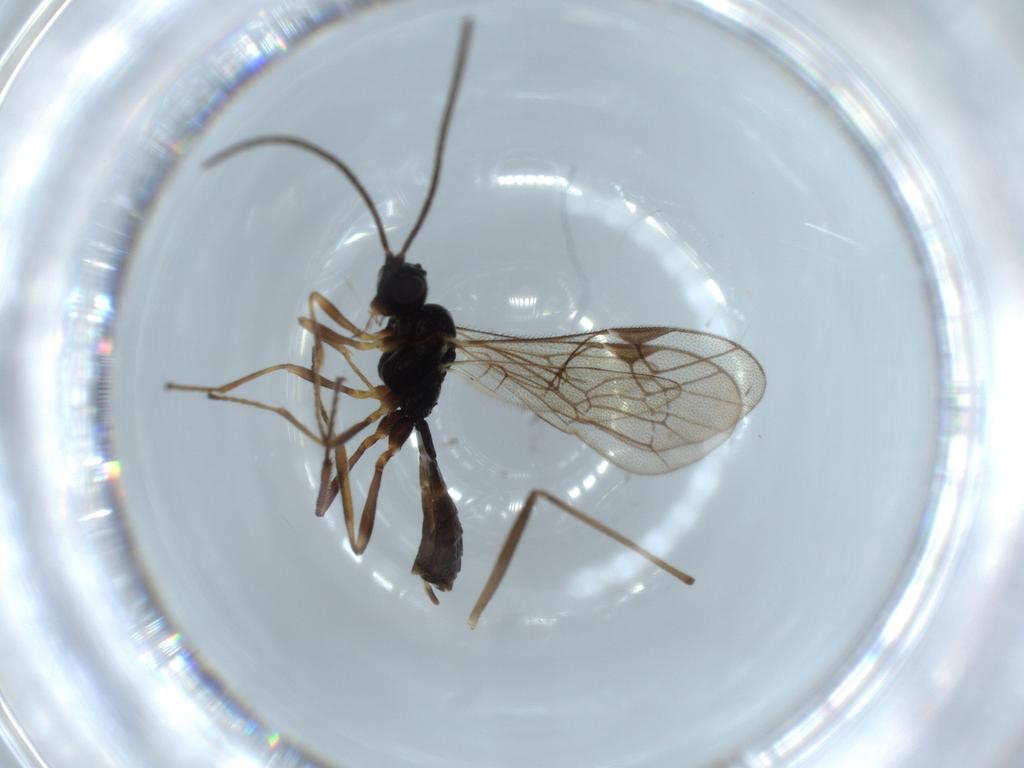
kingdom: Animalia
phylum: Arthropoda
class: Insecta
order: Hymenoptera
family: Ichneumonidae
